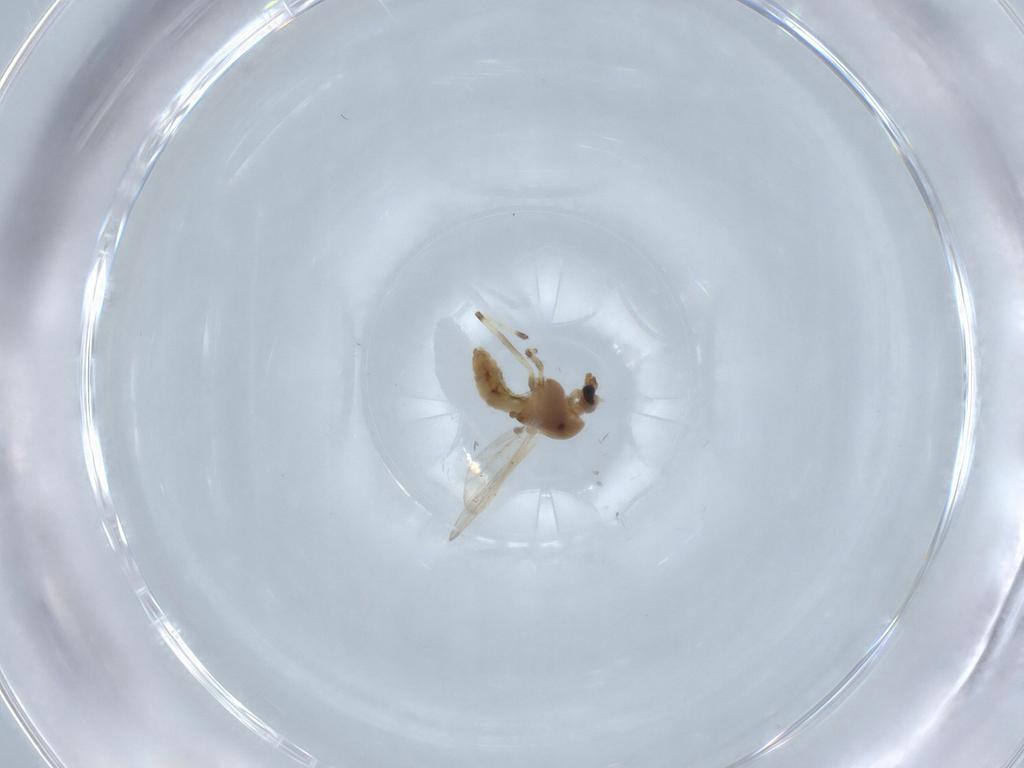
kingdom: Animalia
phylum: Arthropoda
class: Insecta
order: Diptera
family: Chironomidae
